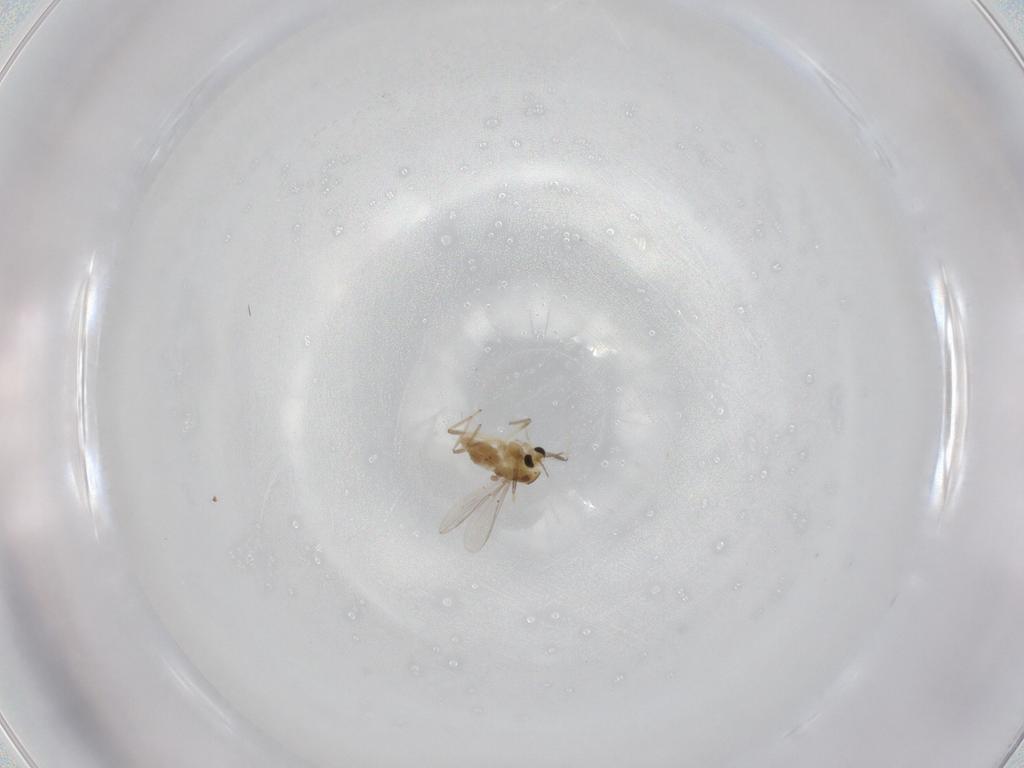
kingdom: Animalia
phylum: Arthropoda
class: Insecta
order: Diptera
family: Chironomidae
